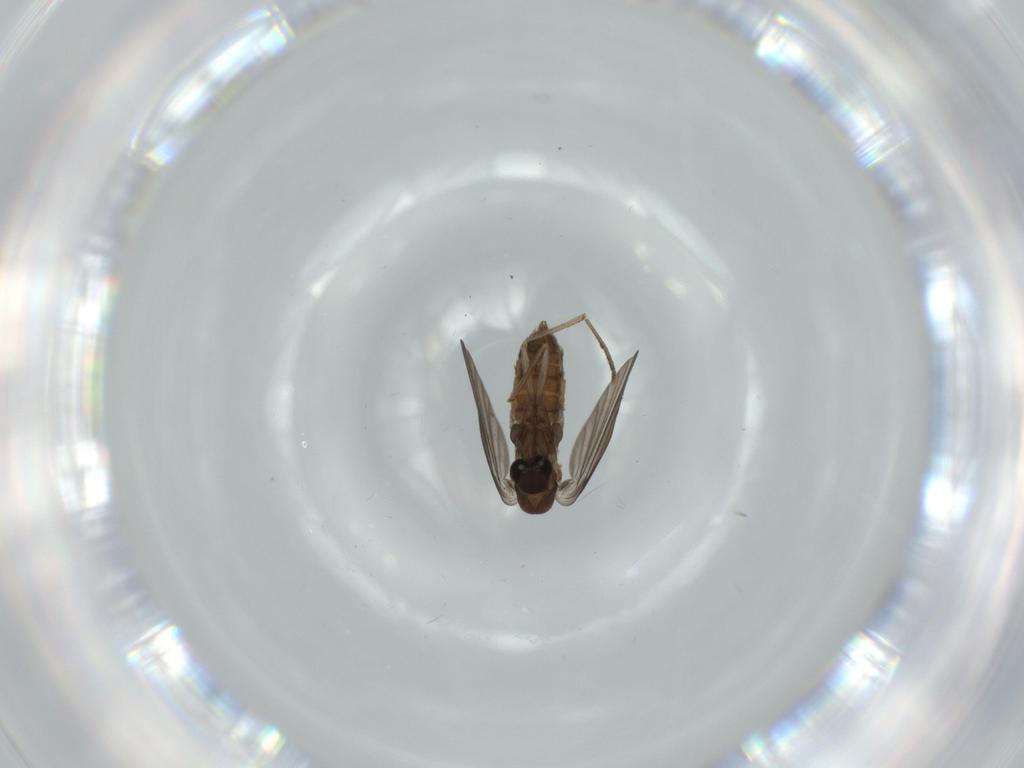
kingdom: Animalia
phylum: Arthropoda
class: Insecta
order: Diptera
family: Psychodidae
